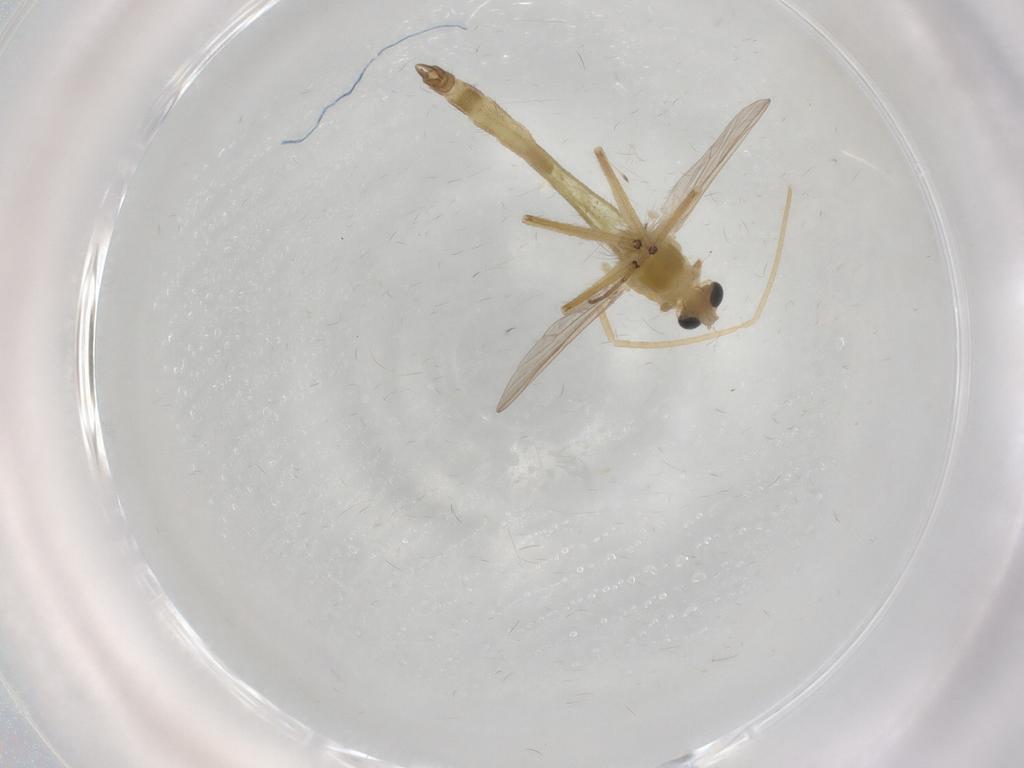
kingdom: Animalia
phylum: Arthropoda
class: Insecta
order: Diptera
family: Chironomidae
